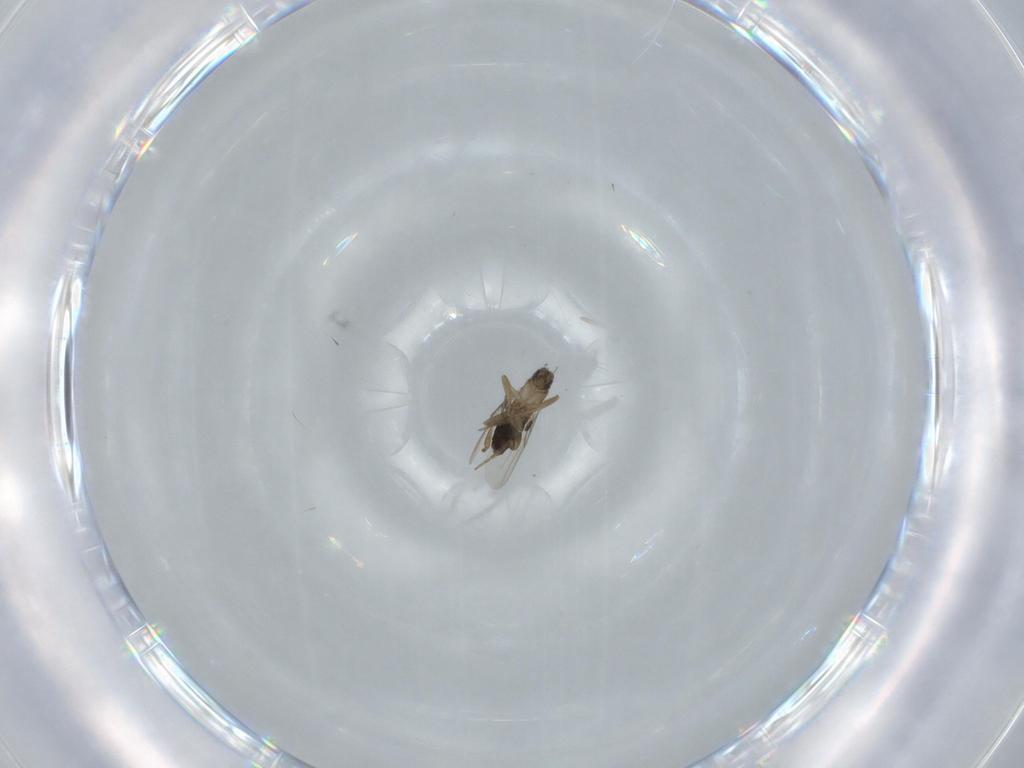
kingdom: Animalia
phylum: Arthropoda
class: Insecta
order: Diptera
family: Phoridae
